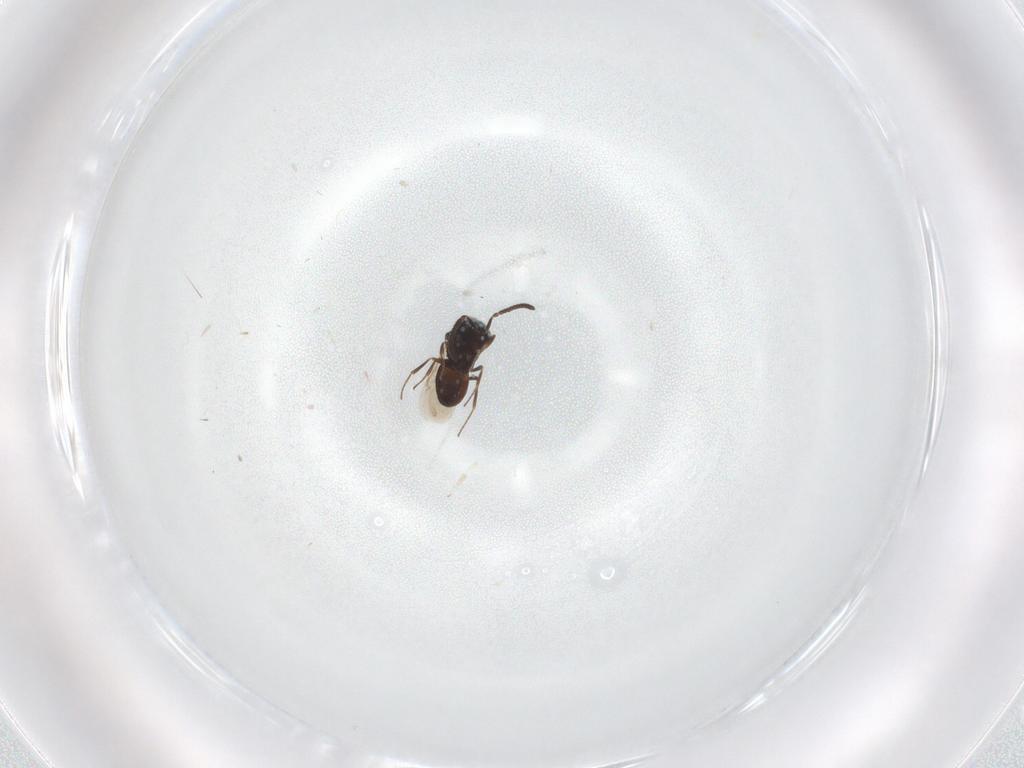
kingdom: Animalia
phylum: Arthropoda
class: Insecta
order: Hymenoptera
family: Scelionidae
